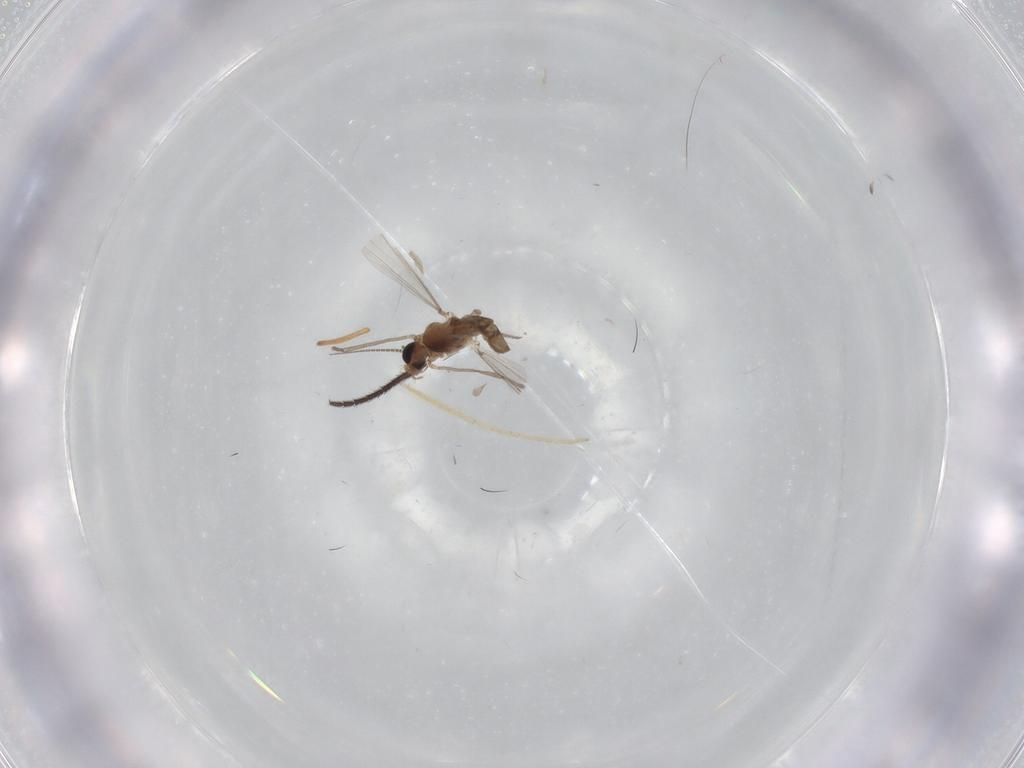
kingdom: Animalia
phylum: Arthropoda
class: Insecta
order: Diptera
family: Chironomidae
